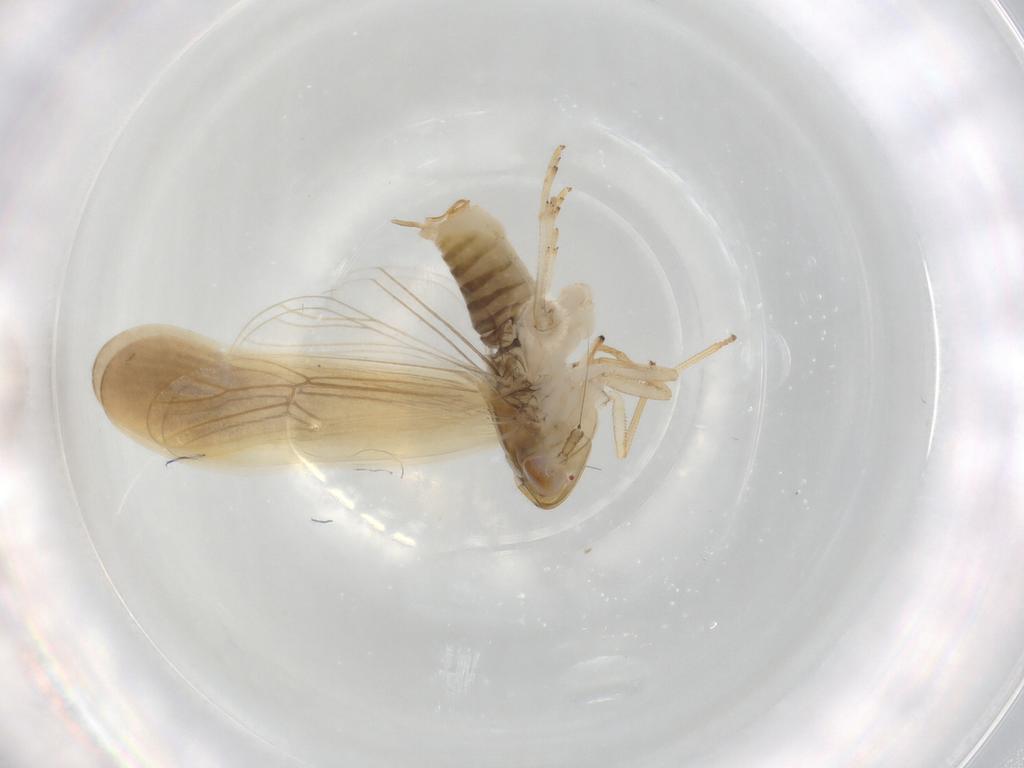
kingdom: Animalia
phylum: Arthropoda
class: Insecta
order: Hemiptera
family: Delphacidae
